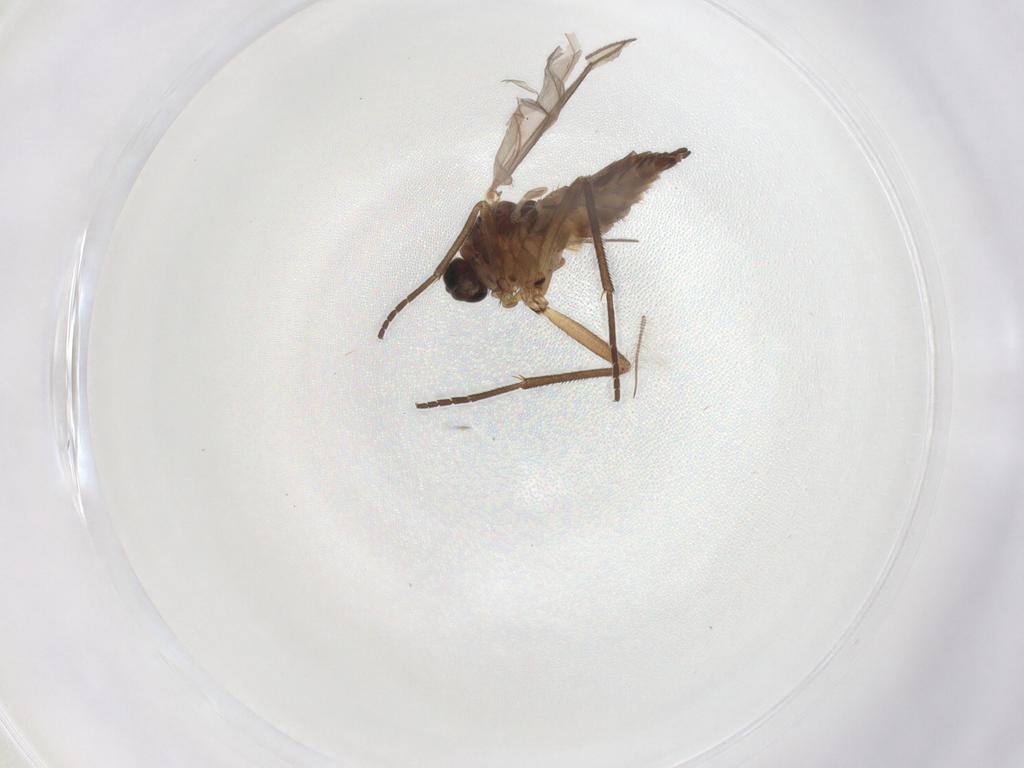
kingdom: Animalia
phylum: Arthropoda
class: Insecta
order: Diptera
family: Sciaridae
